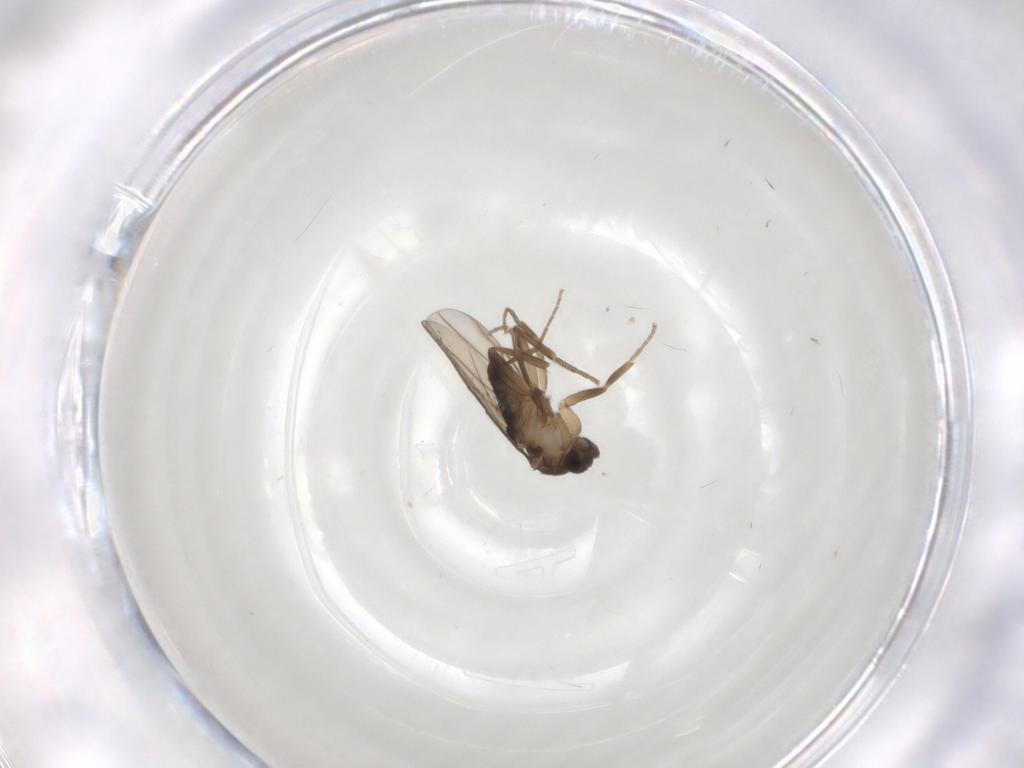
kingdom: Animalia
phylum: Arthropoda
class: Insecta
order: Diptera
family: Phoridae
